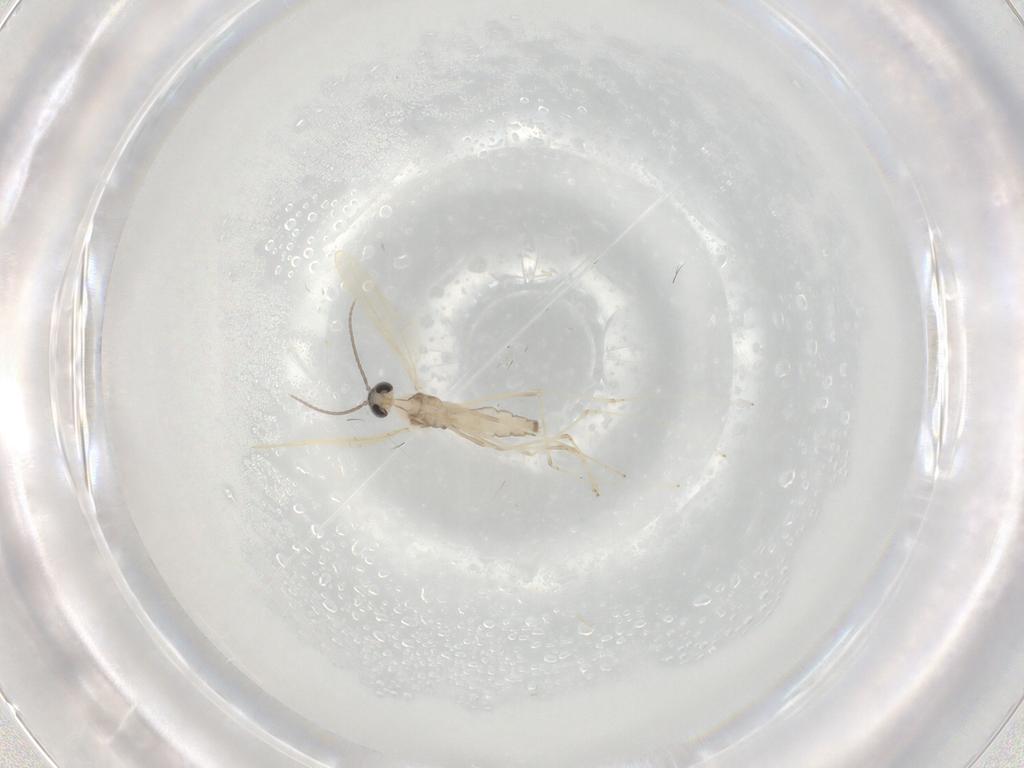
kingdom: Animalia
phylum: Arthropoda
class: Insecta
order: Diptera
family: Cecidomyiidae
